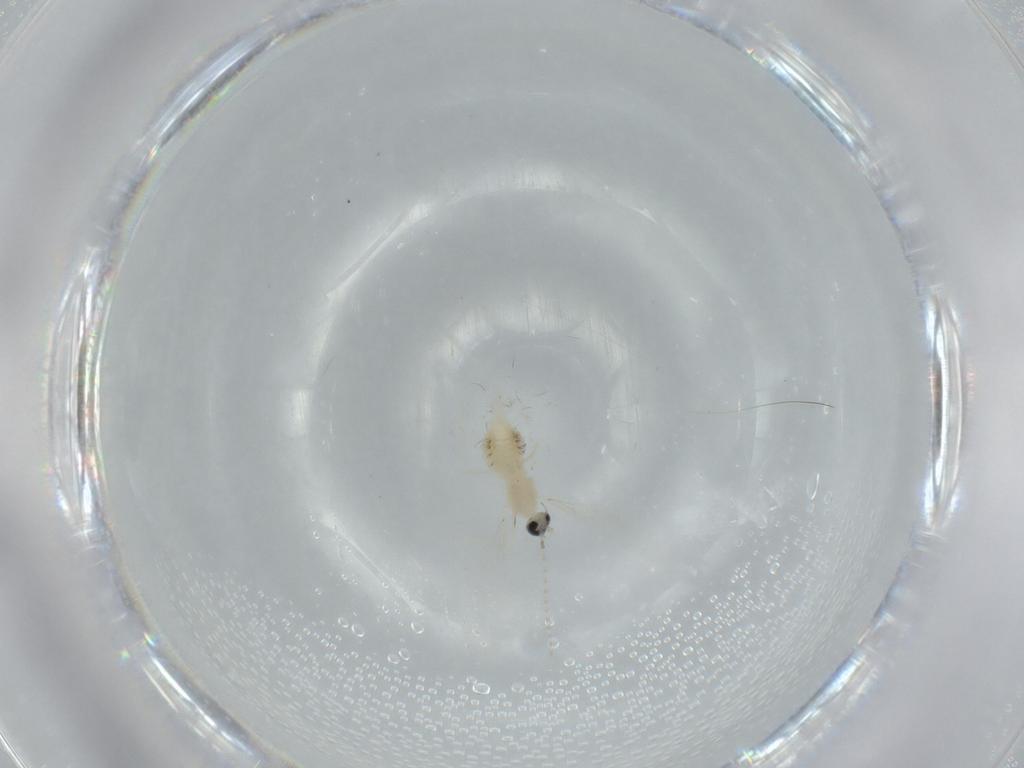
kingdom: Animalia
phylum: Arthropoda
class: Insecta
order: Diptera
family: Cecidomyiidae
